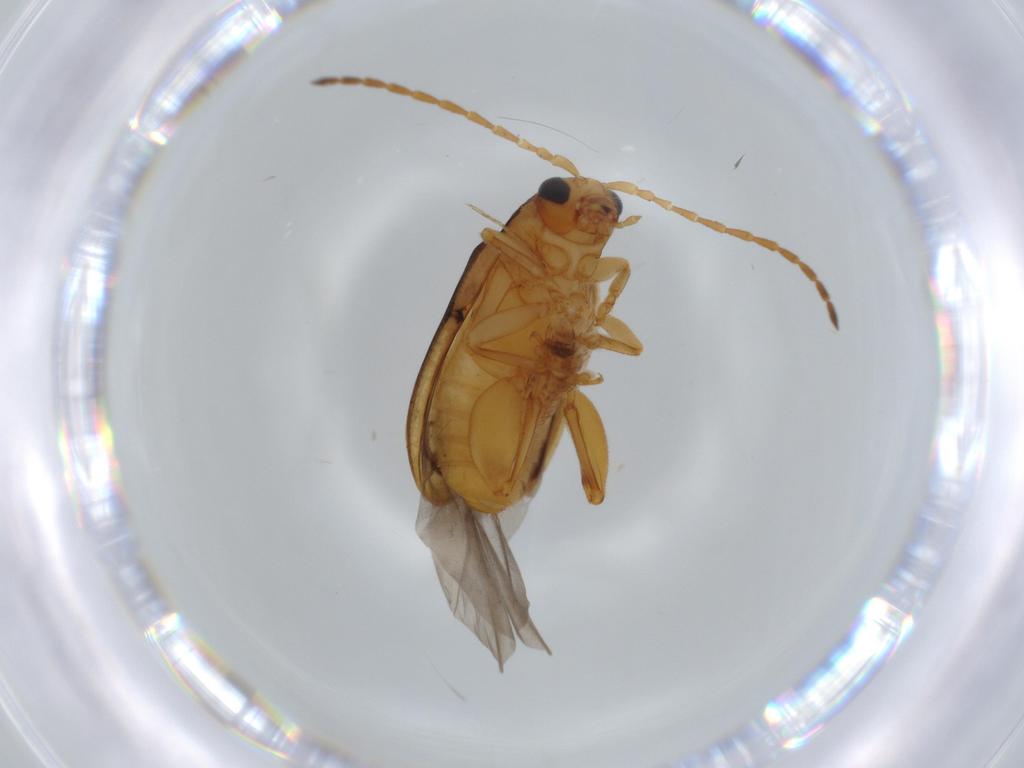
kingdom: Animalia
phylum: Arthropoda
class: Insecta
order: Coleoptera
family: Chrysomelidae
